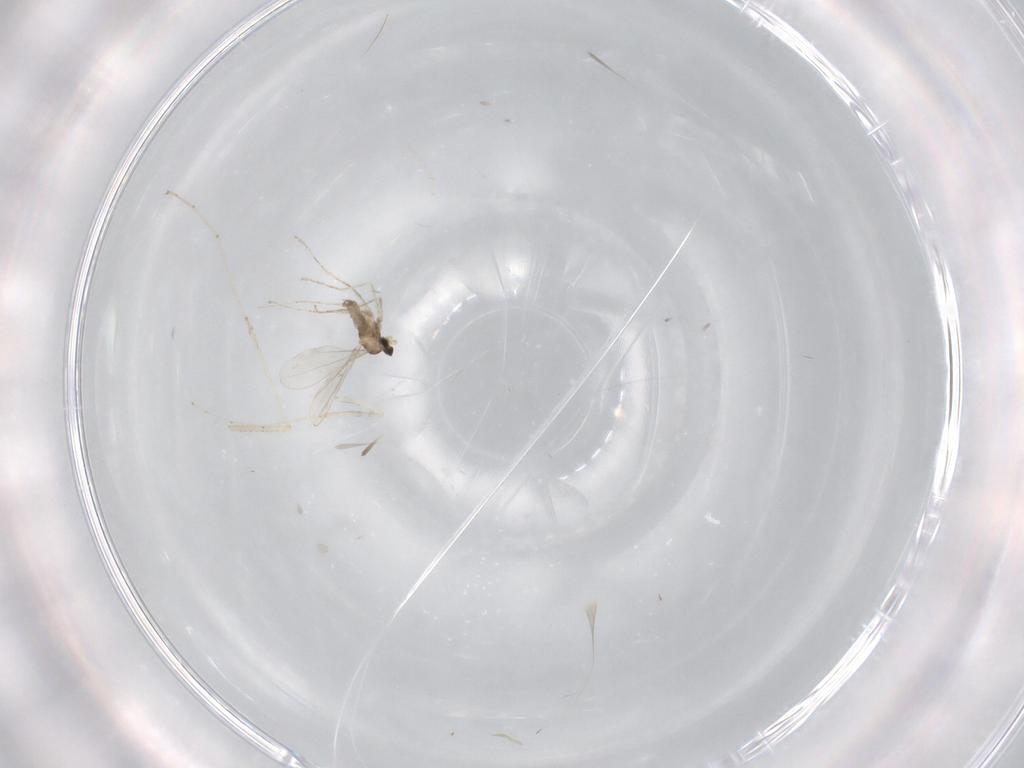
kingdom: Animalia
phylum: Arthropoda
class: Insecta
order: Diptera
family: Cecidomyiidae
